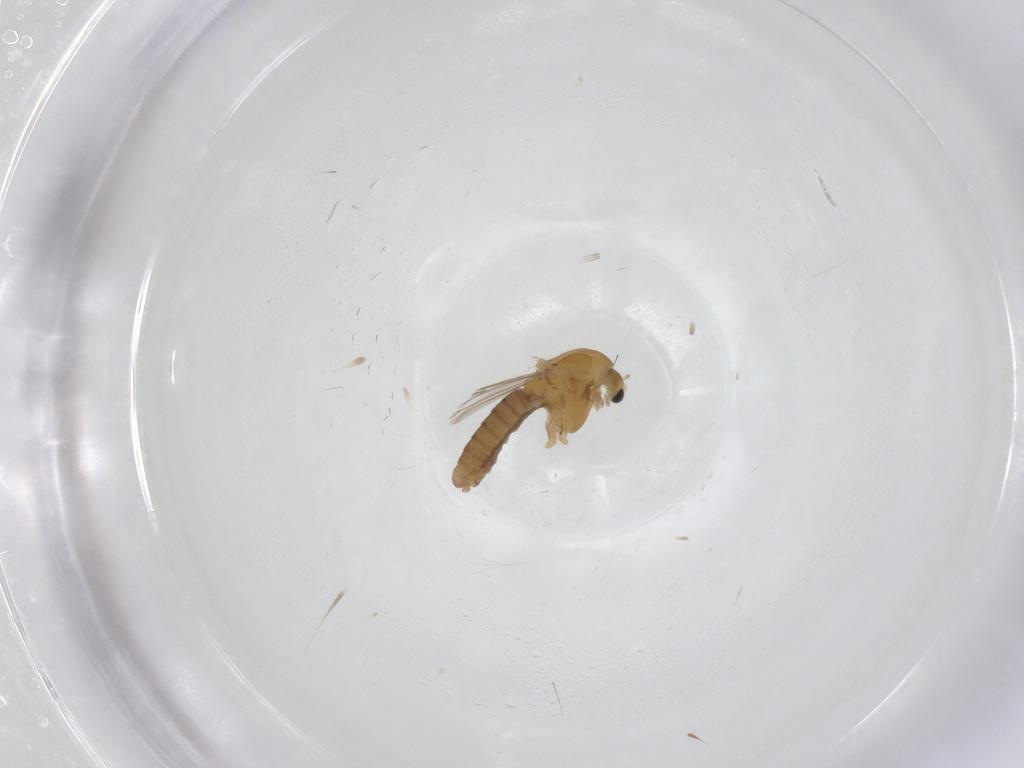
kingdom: Animalia
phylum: Arthropoda
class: Insecta
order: Diptera
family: Chironomidae
